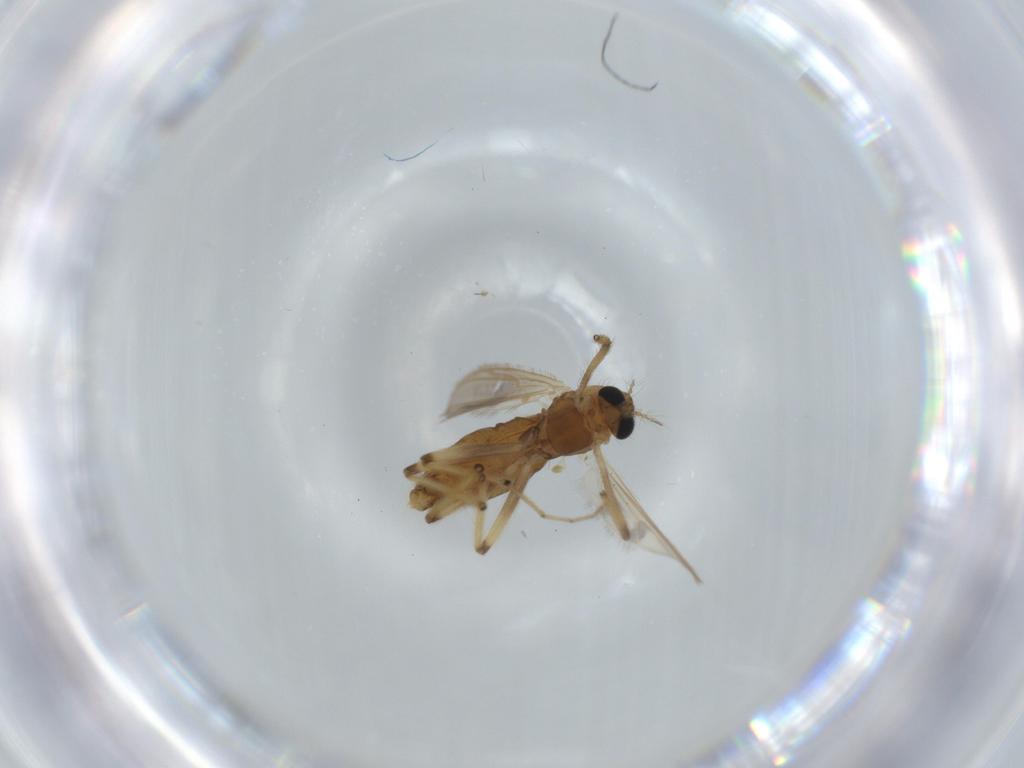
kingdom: Animalia
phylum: Arthropoda
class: Insecta
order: Diptera
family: Chironomidae
